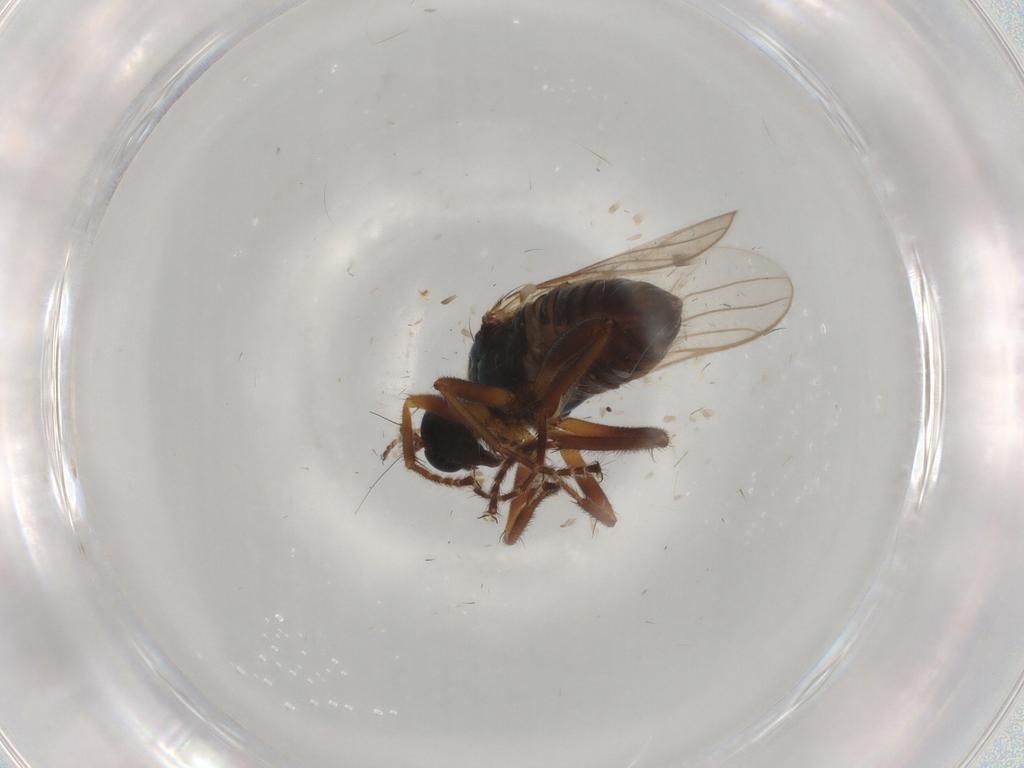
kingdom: Animalia
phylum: Arthropoda
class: Insecta
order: Diptera
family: Hybotidae
